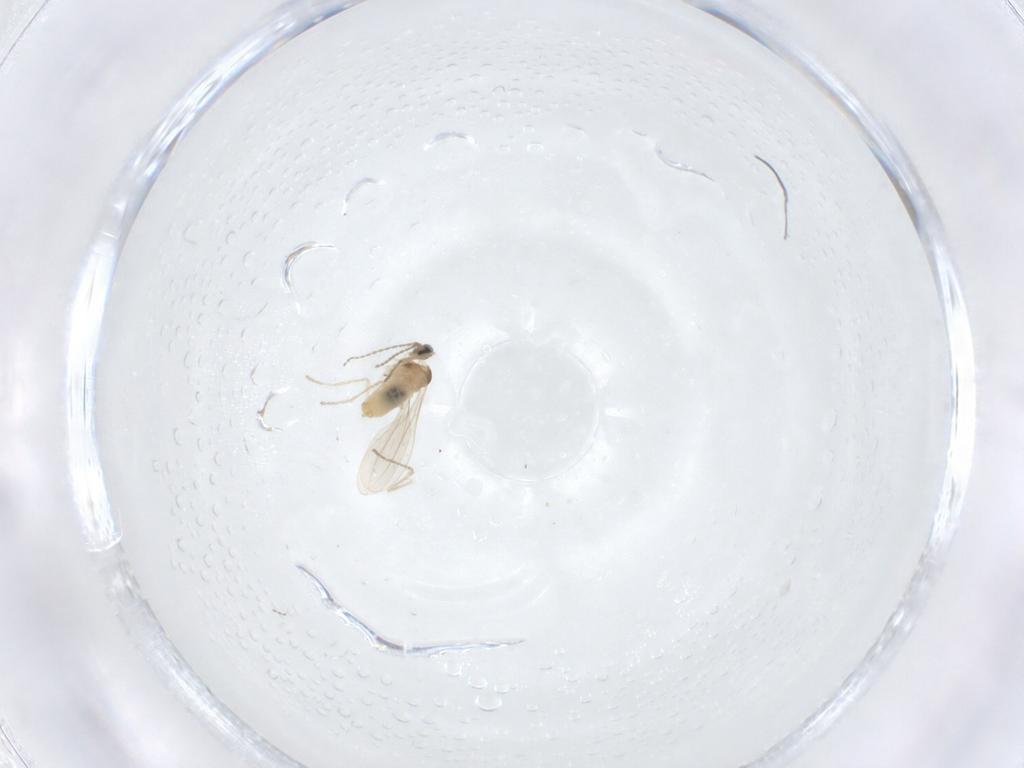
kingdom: Animalia
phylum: Arthropoda
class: Insecta
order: Diptera
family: Cecidomyiidae
